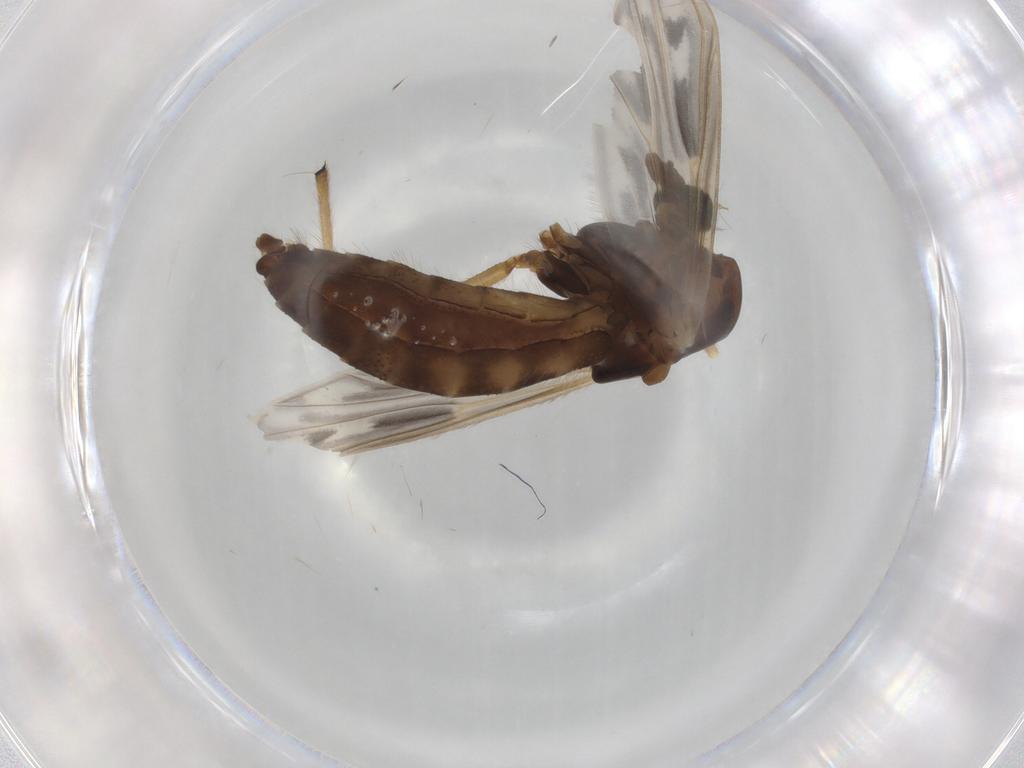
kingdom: Animalia
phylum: Arthropoda
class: Insecta
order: Diptera
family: Chironomidae
